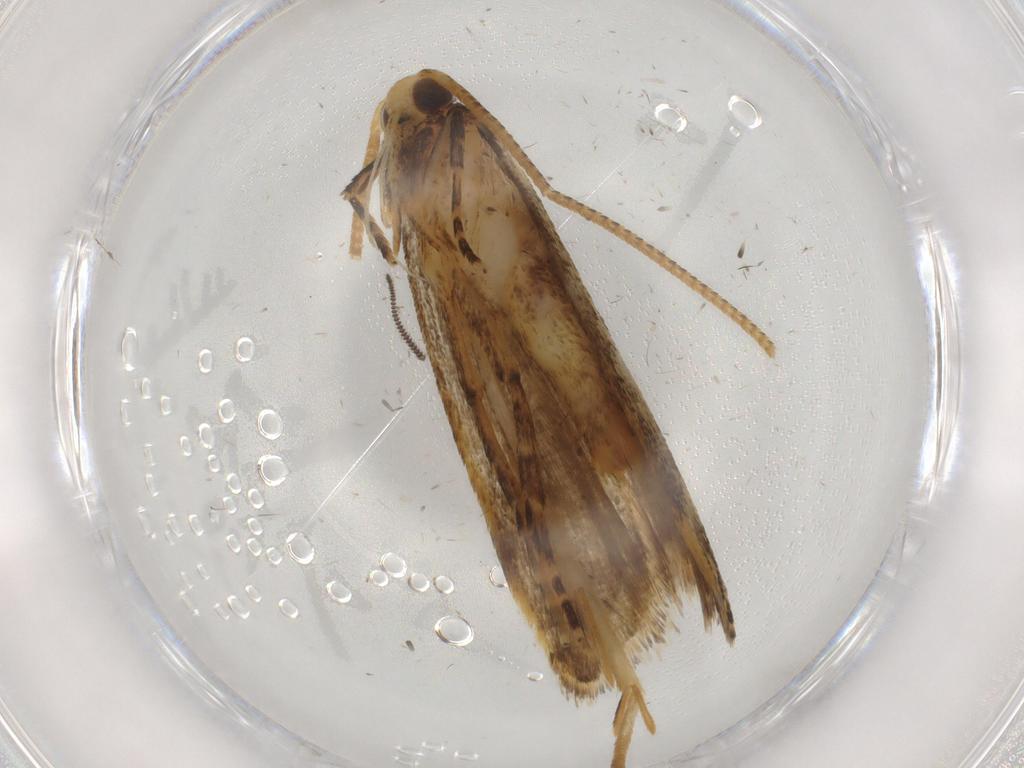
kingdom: Animalia
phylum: Arthropoda
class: Insecta
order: Lepidoptera
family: Autostichidae
